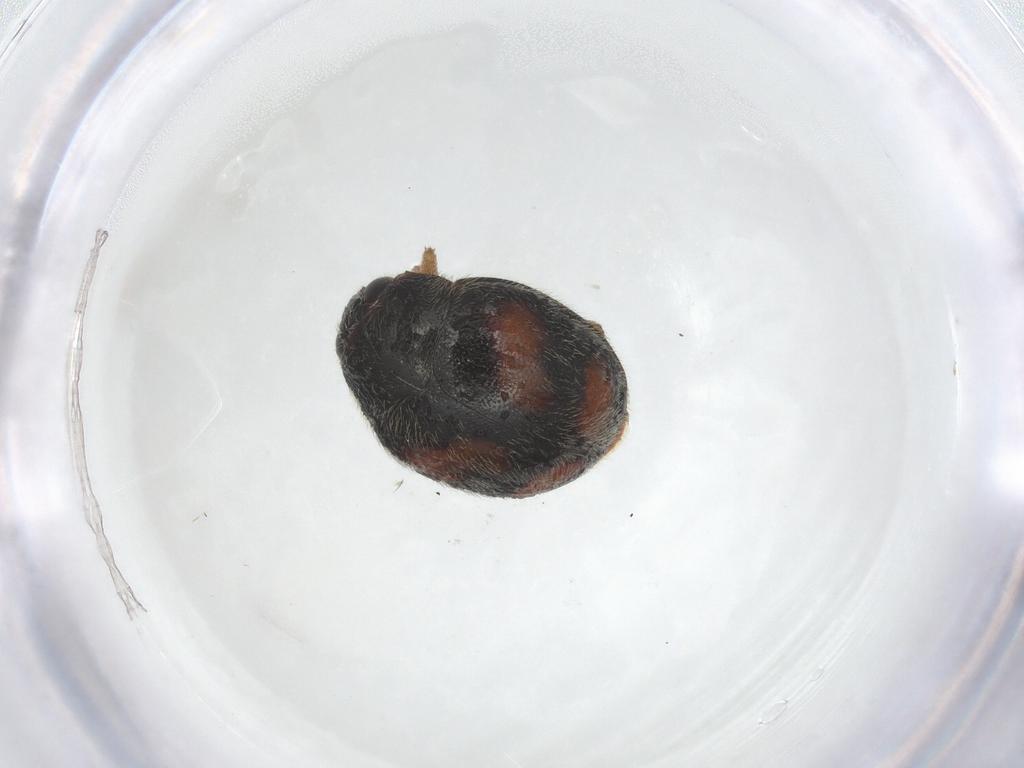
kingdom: Animalia
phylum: Arthropoda
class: Insecta
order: Coleoptera
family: Coccinellidae
